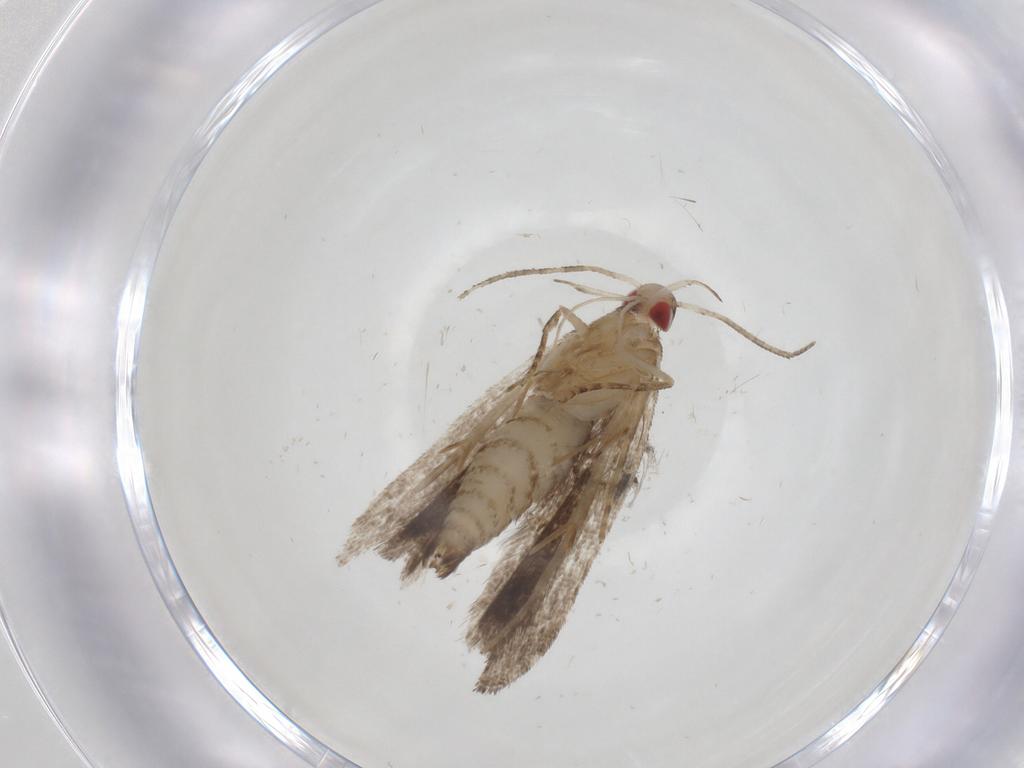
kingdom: Animalia
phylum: Arthropoda
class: Insecta
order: Lepidoptera
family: Gelechiidae
